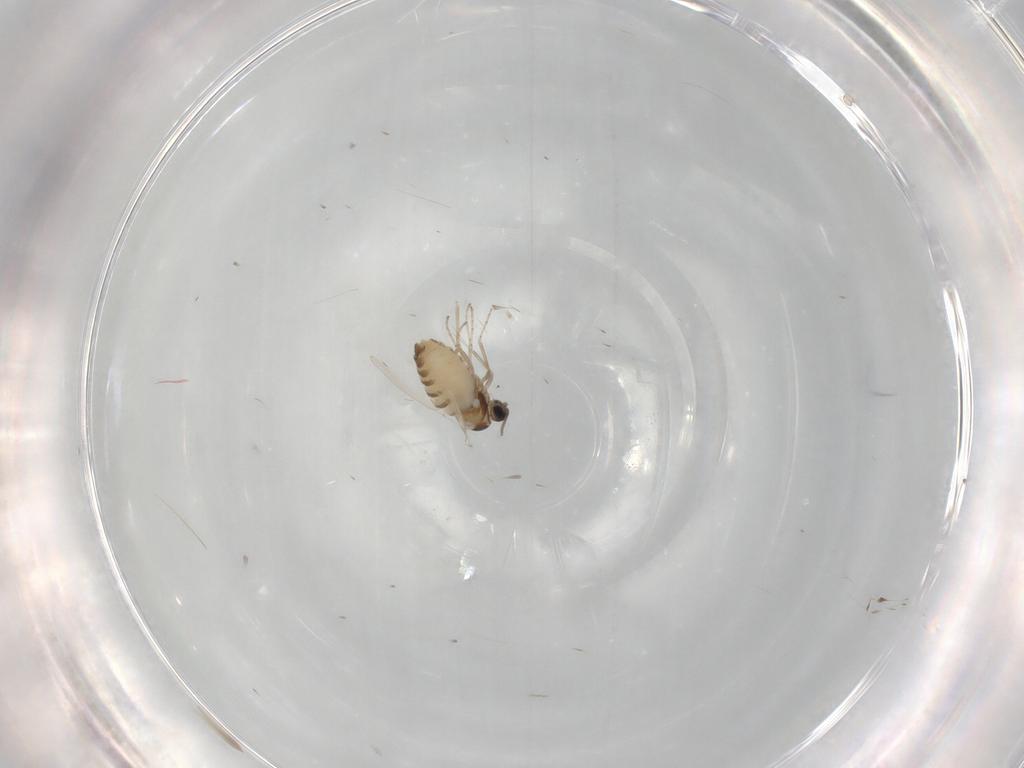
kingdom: Animalia
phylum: Arthropoda
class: Insecta
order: Diptera
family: Cecidomyiidae
